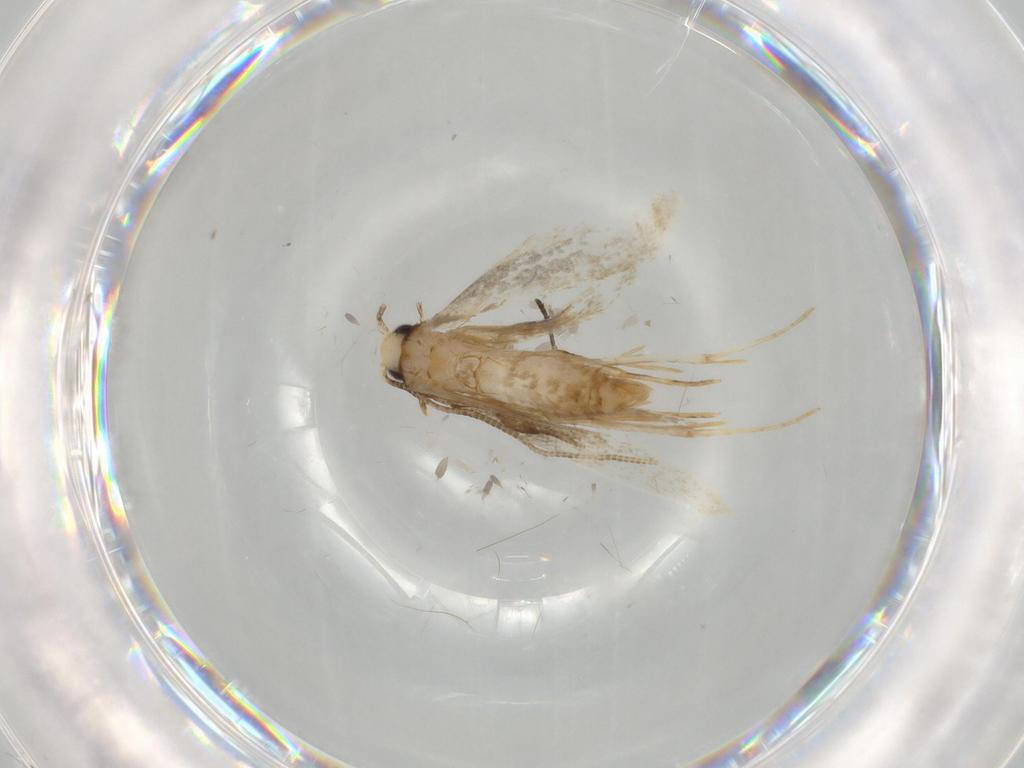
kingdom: Animalia
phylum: Arthropoda
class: Insecta
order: Lepidoptera
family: Tineidae
